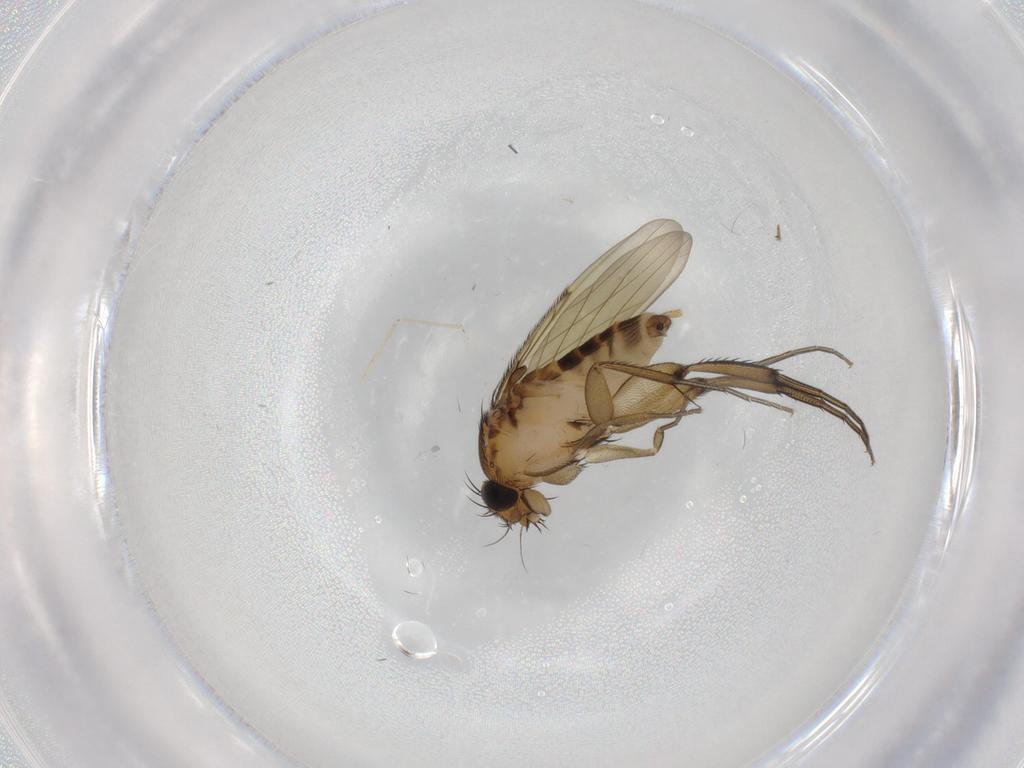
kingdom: Animalia
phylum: Arthropoda
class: Insecta
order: Diptera
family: Phoridae
